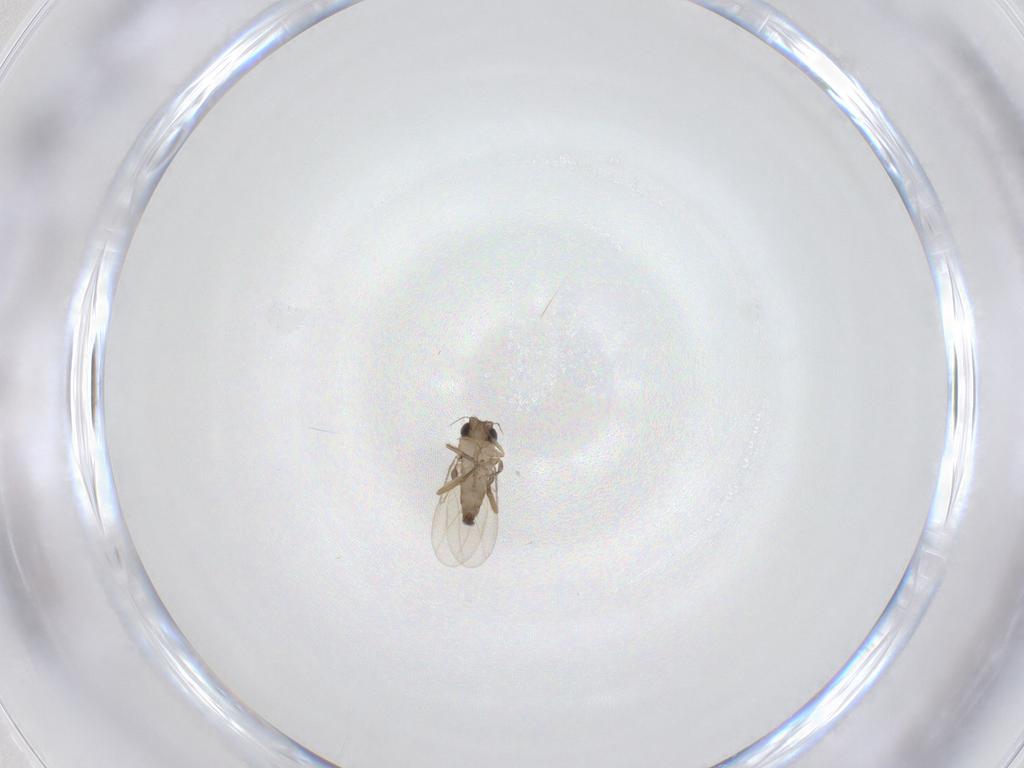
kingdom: Animalia
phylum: Arthropoda
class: Insecta
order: Diptera
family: Phoridae
